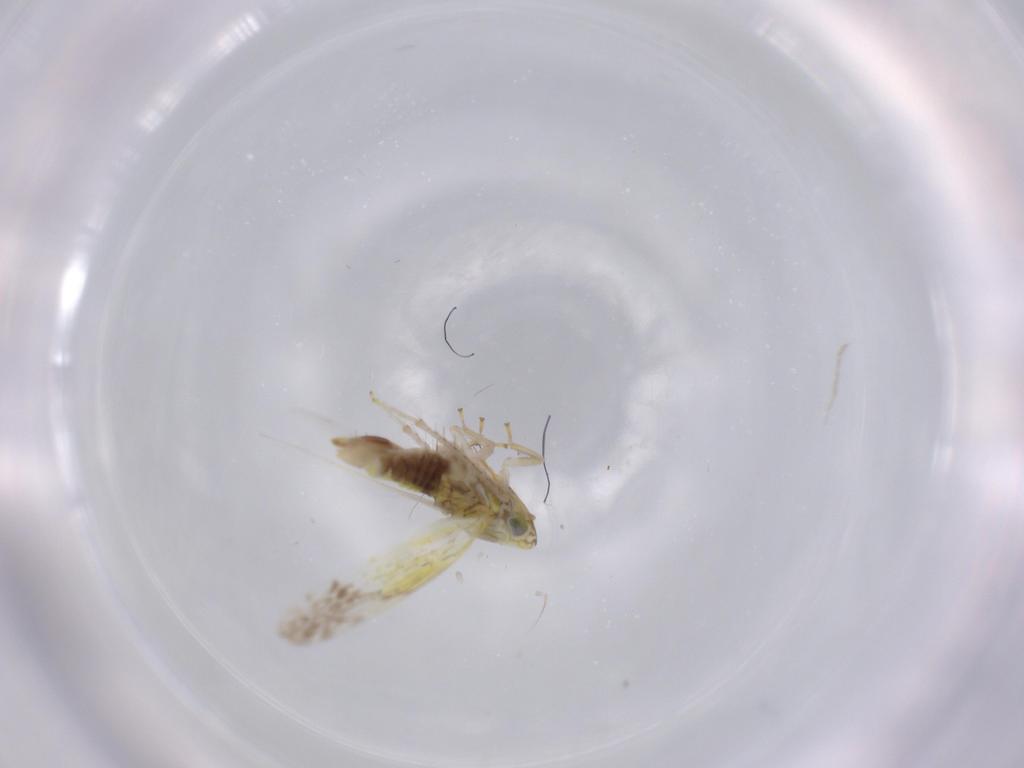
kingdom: Animalia
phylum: Arthropoda
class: Insecta
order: Hemiptera
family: Cicadellidae
